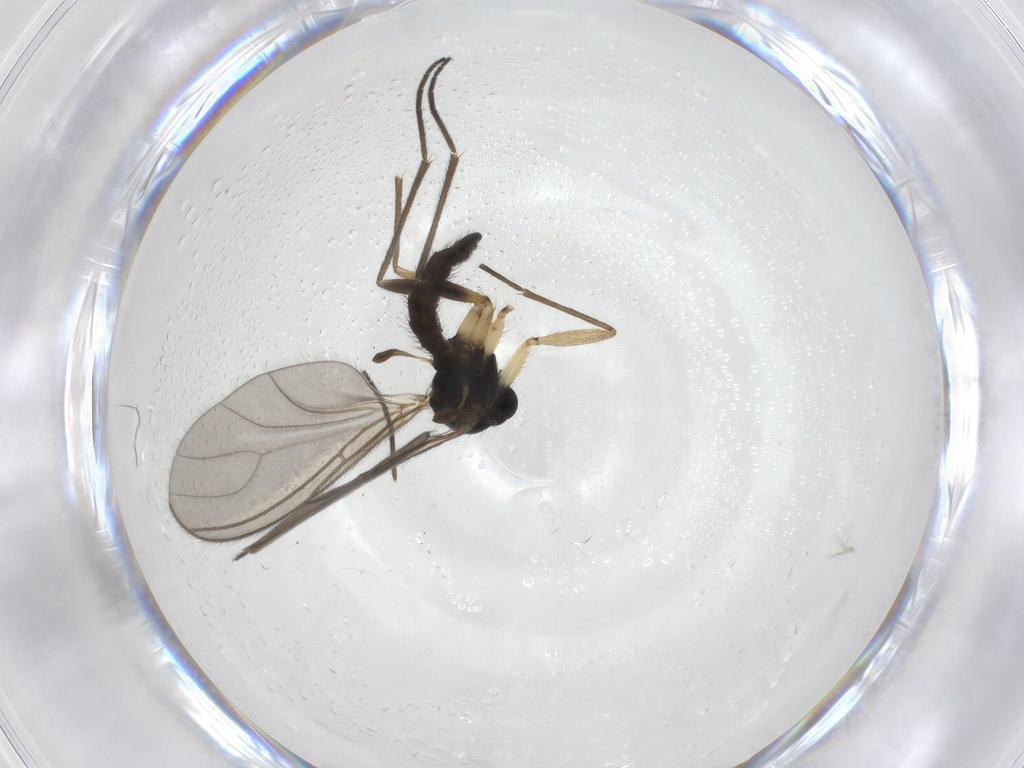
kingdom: Animalia
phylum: Arthropoda
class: Insecta
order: Diptera
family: Sciaridae
